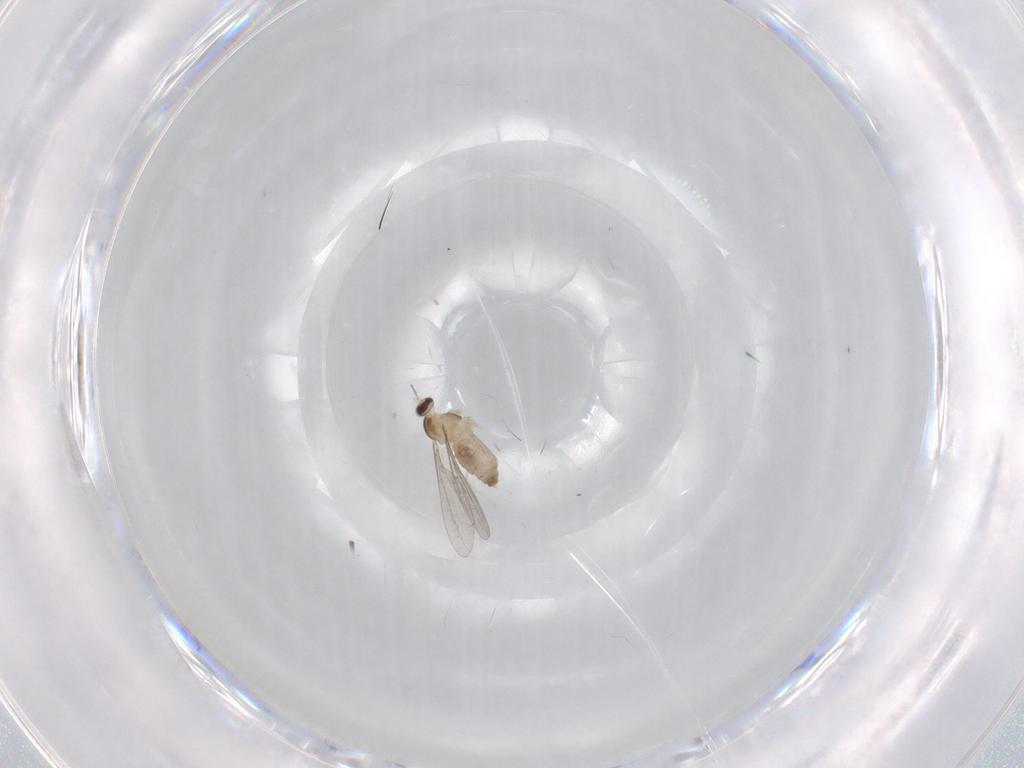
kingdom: Animalia
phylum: Arthropoda
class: Insecta
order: Diptera
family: Cecidomyiidae
